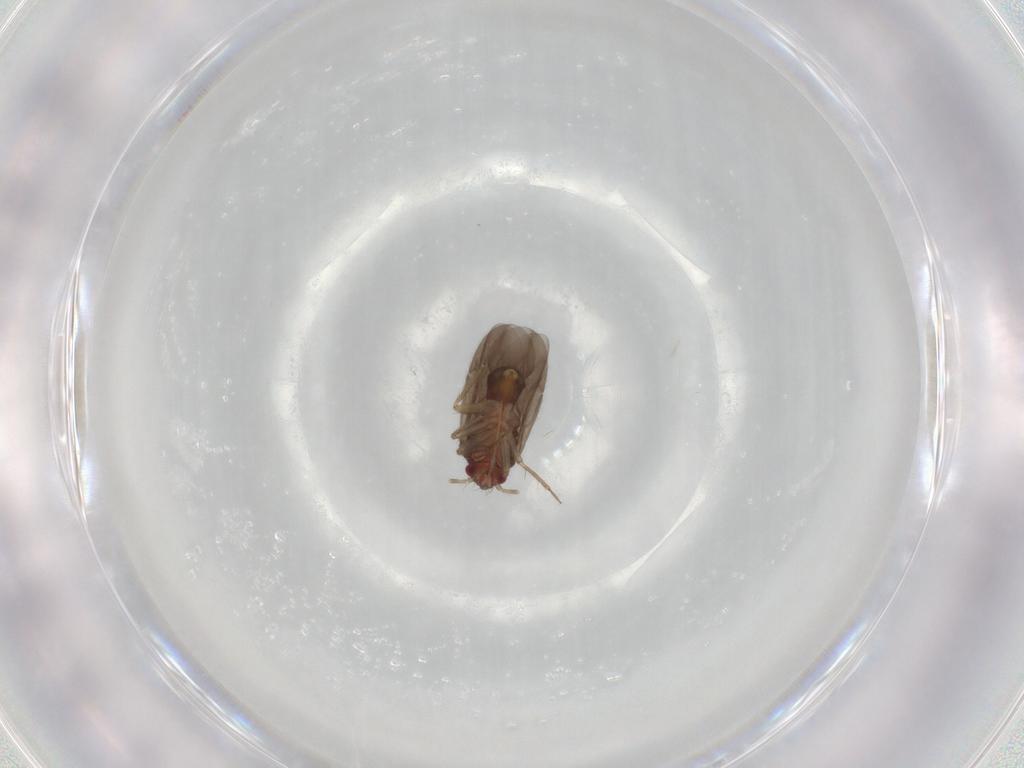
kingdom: Animalia
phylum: Arthropoda
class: Insecta
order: Hemiptera
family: Ceratocombidae
